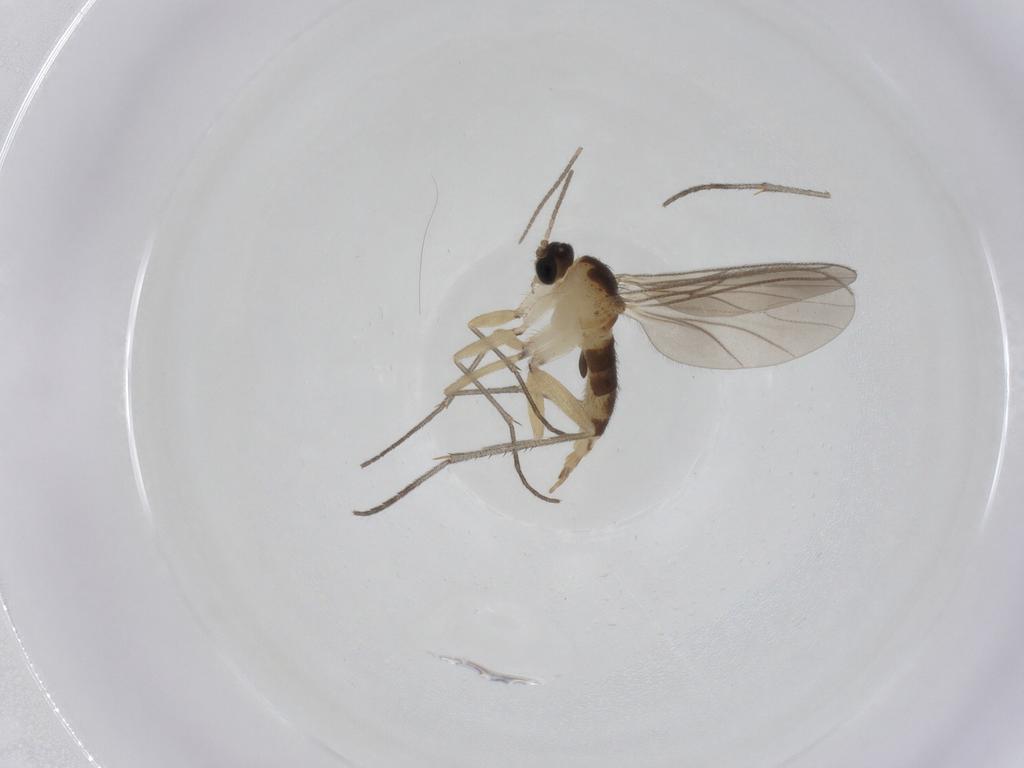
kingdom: Animalia
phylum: Arthropoda
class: Insecta
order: Diptera
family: Sciaridae
